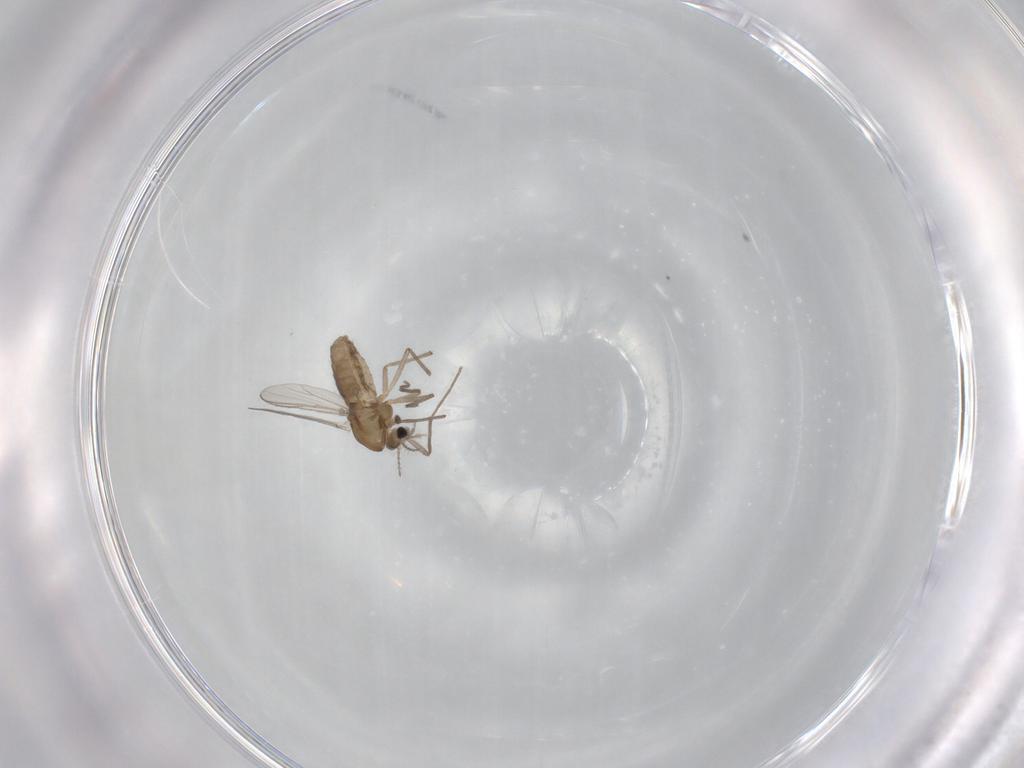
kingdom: Animalia
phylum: Arthropoda
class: Insecta
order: Diptera
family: Chironomidae
